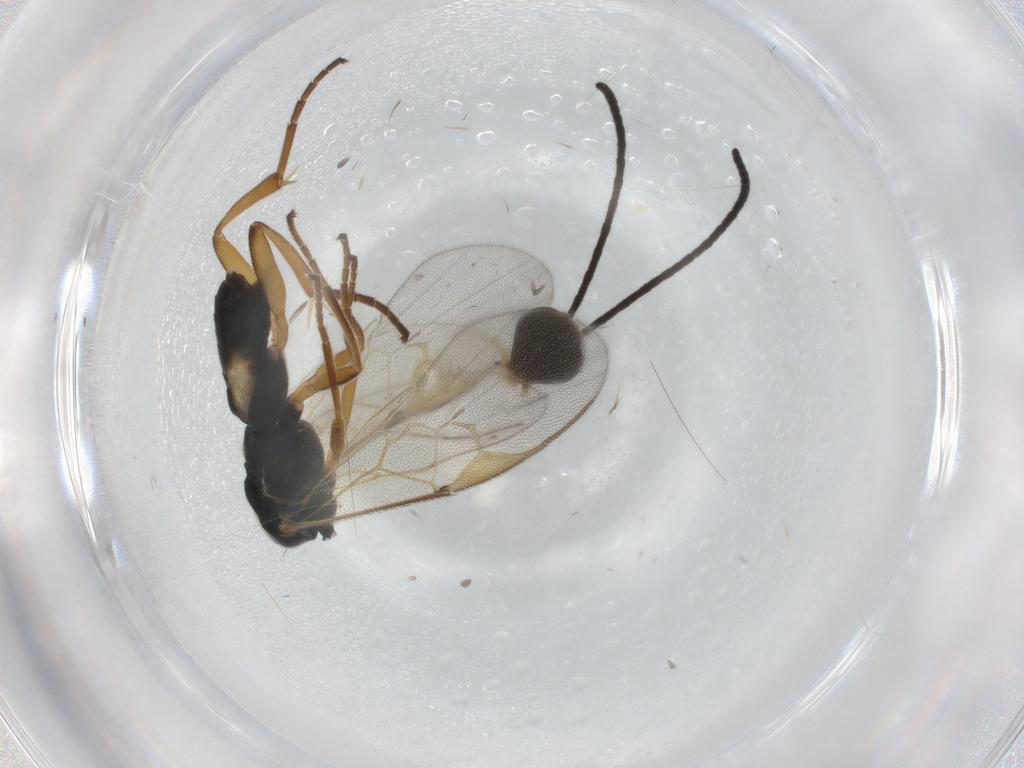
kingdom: Animalia
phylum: Arthropoda
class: Insecta
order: Hymenoptera
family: Braconidae
